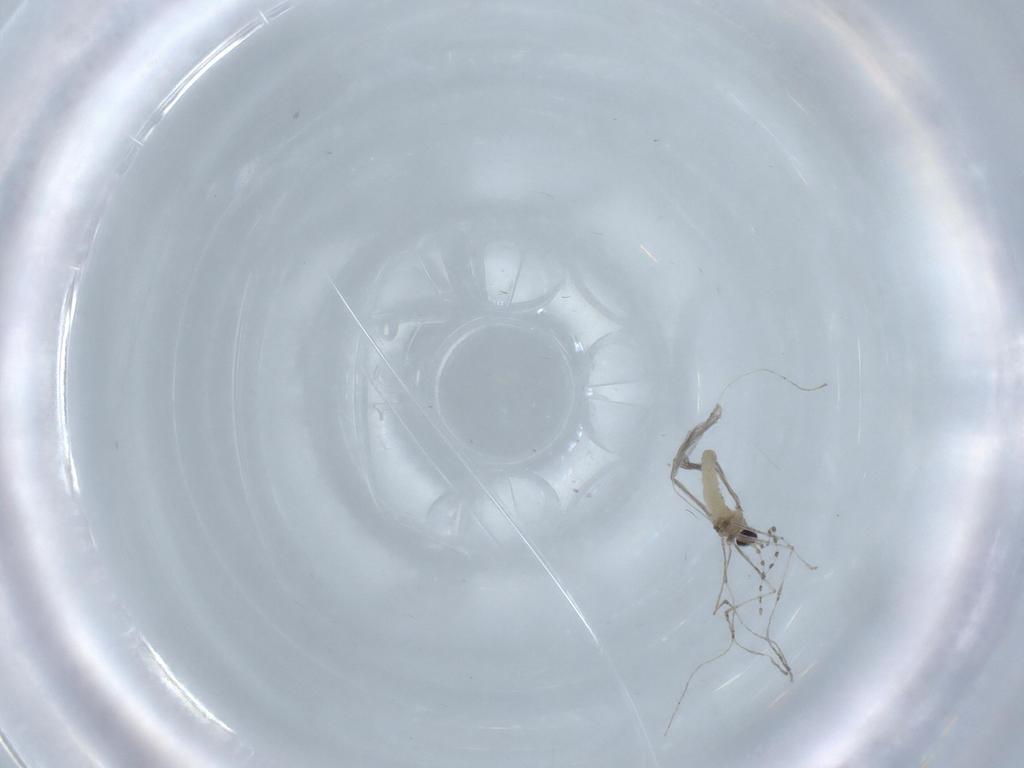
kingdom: Animalia
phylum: Arthropoda
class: Insecta
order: Diptera
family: Cecidomyiidae
